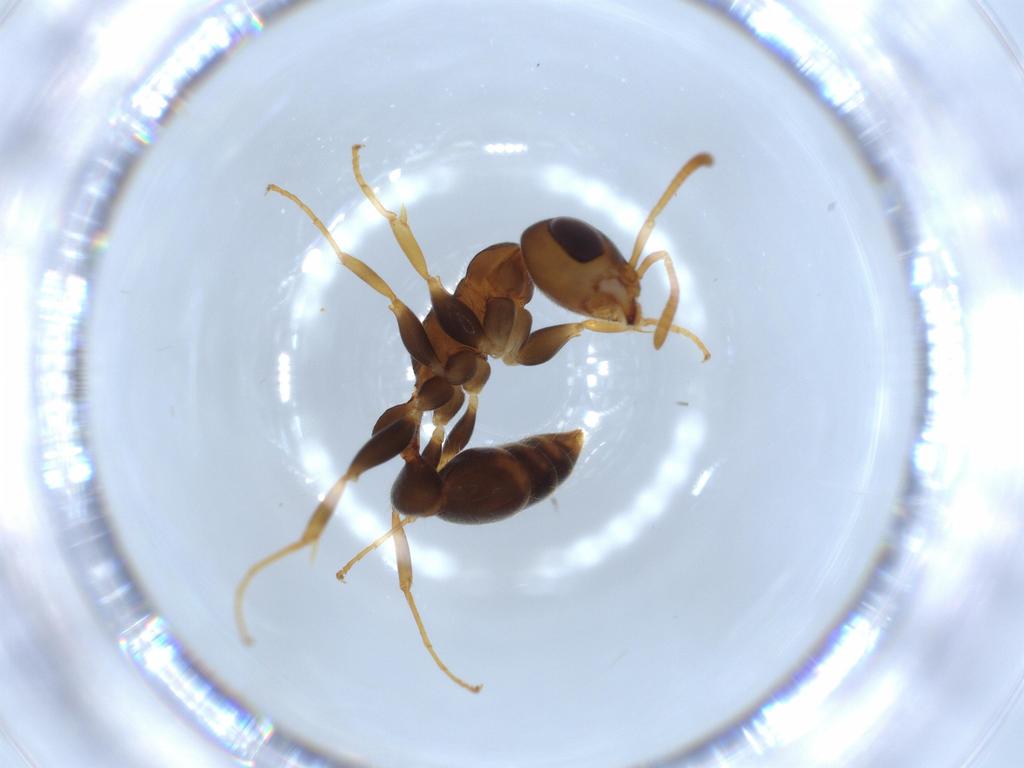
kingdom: Animalia
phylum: Arthropoda
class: Insecta
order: Hymenoptera
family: Formicidae
